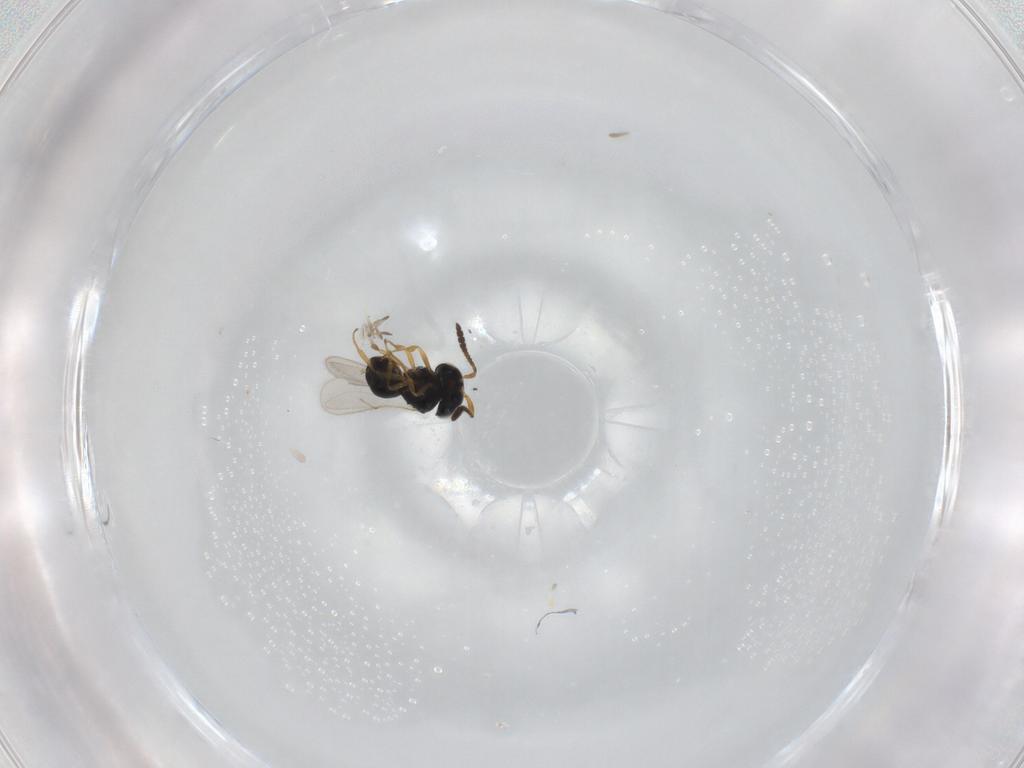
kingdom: Animalia
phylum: Arthropoda
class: Insecta
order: Hymenoptera
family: Scelionidae
